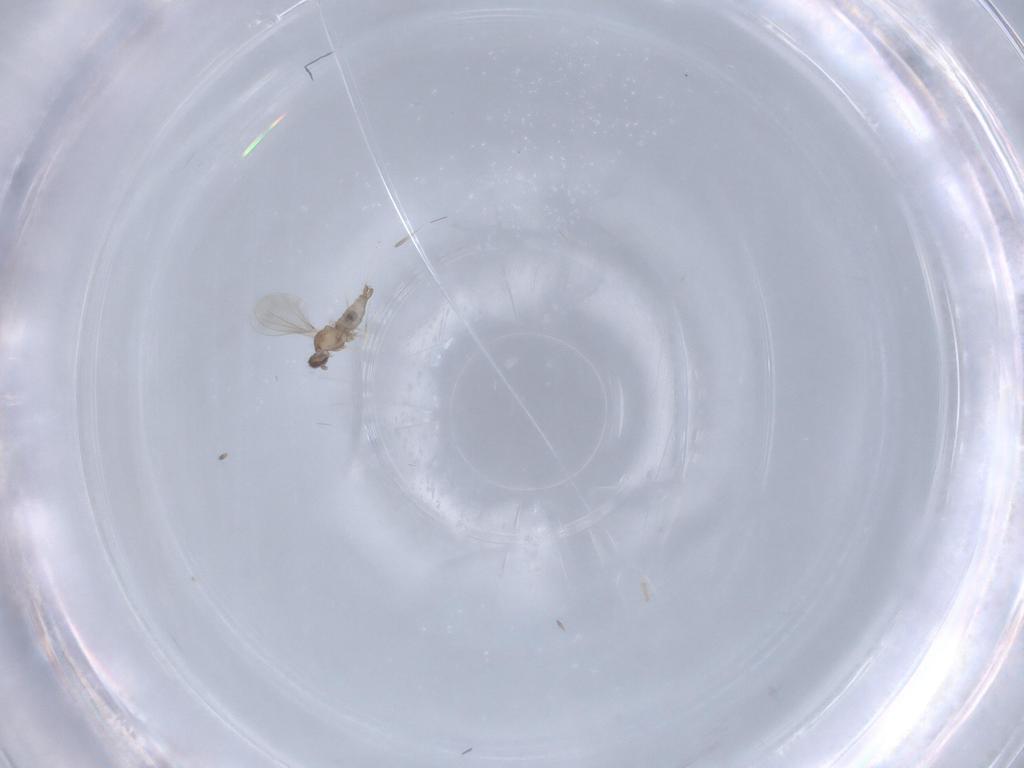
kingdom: Animalia
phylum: Arthropoda
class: Insecta
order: Diptera
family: Cecidomyiidae
